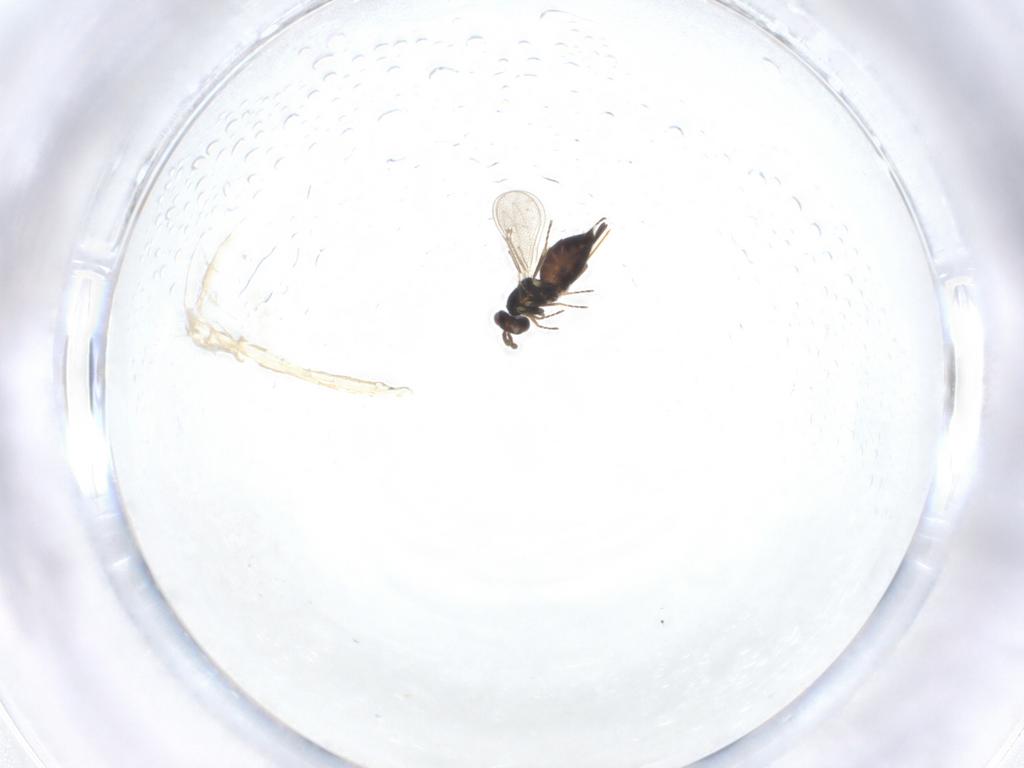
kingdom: Animalia
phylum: Arthropoda
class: Insecta
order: Hymenoptera
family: Eulophidae
